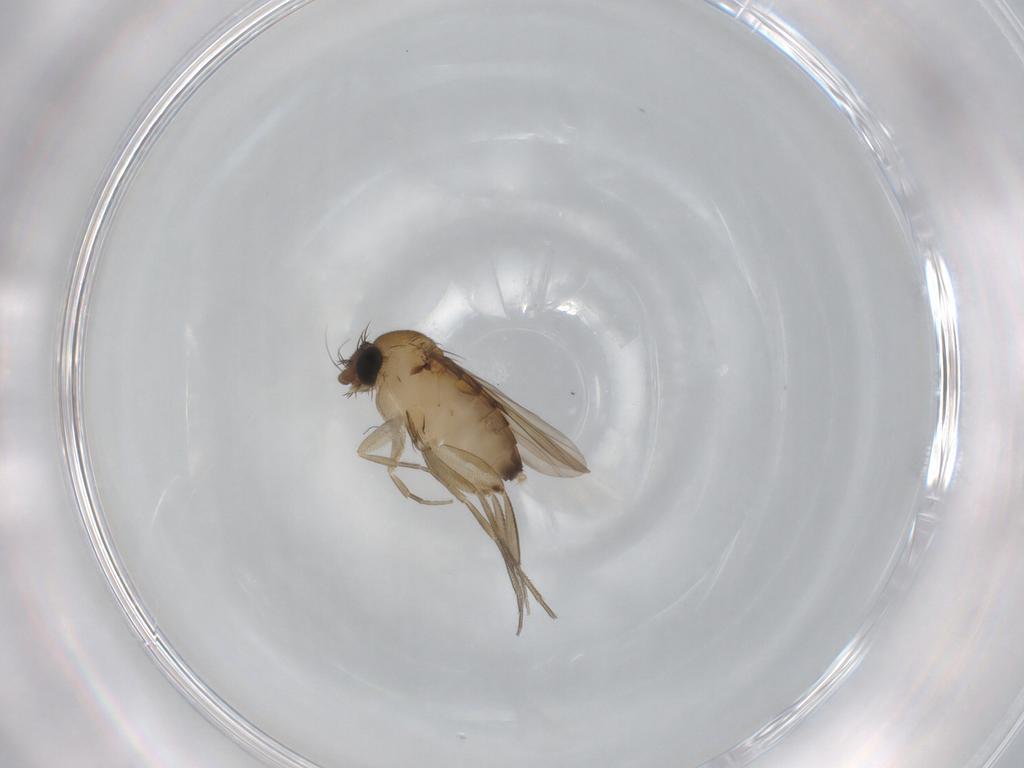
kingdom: Animalia
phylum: Arthropoda
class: Insecta
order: Diptera
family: Phoridae
